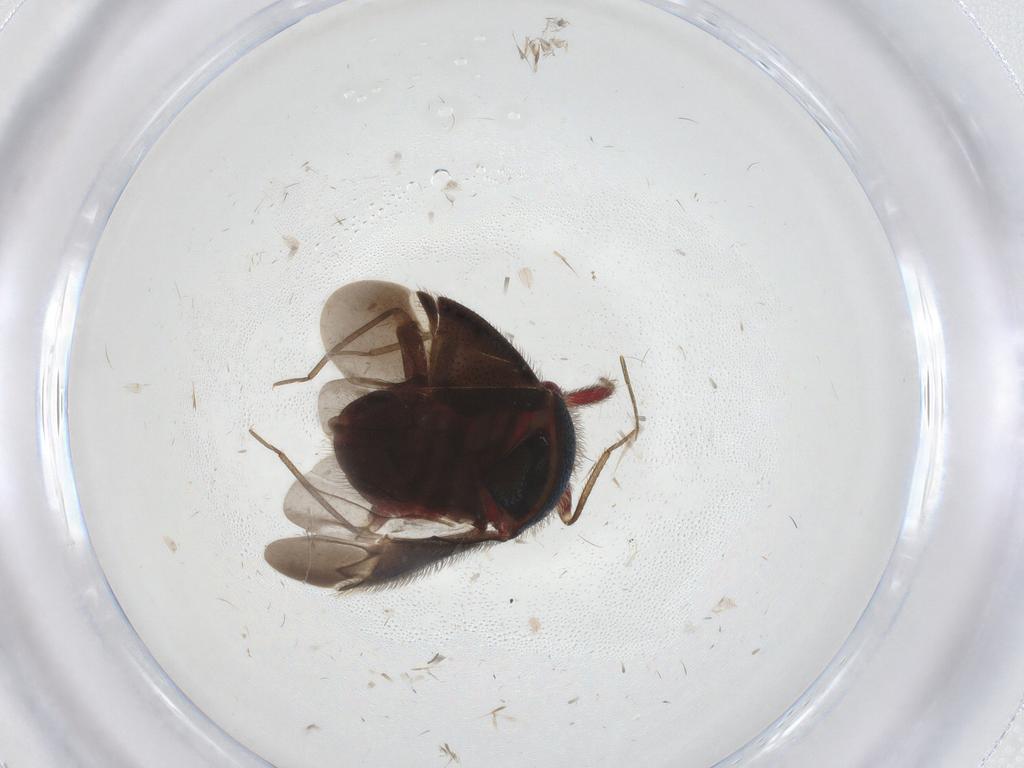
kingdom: Animalia
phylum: Arthropoda
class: Insecta
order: Hemiptera
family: Miridae
